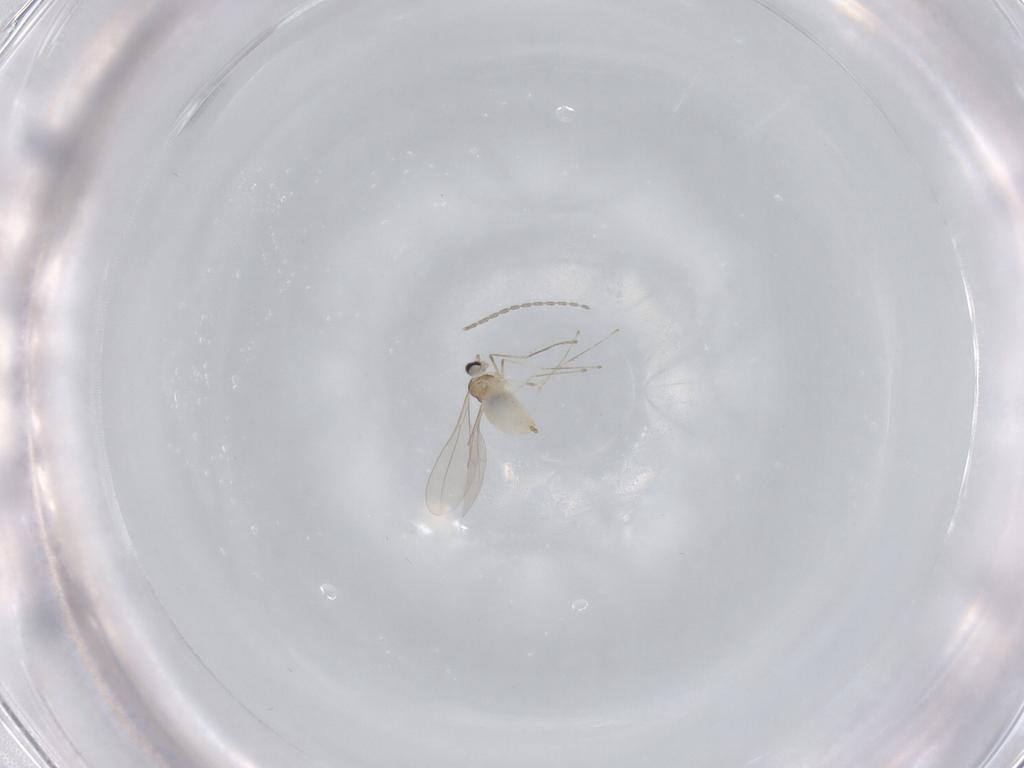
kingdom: Animalia
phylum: Arthropoda
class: Insecta
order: Diptera
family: Cecidomyiidae
